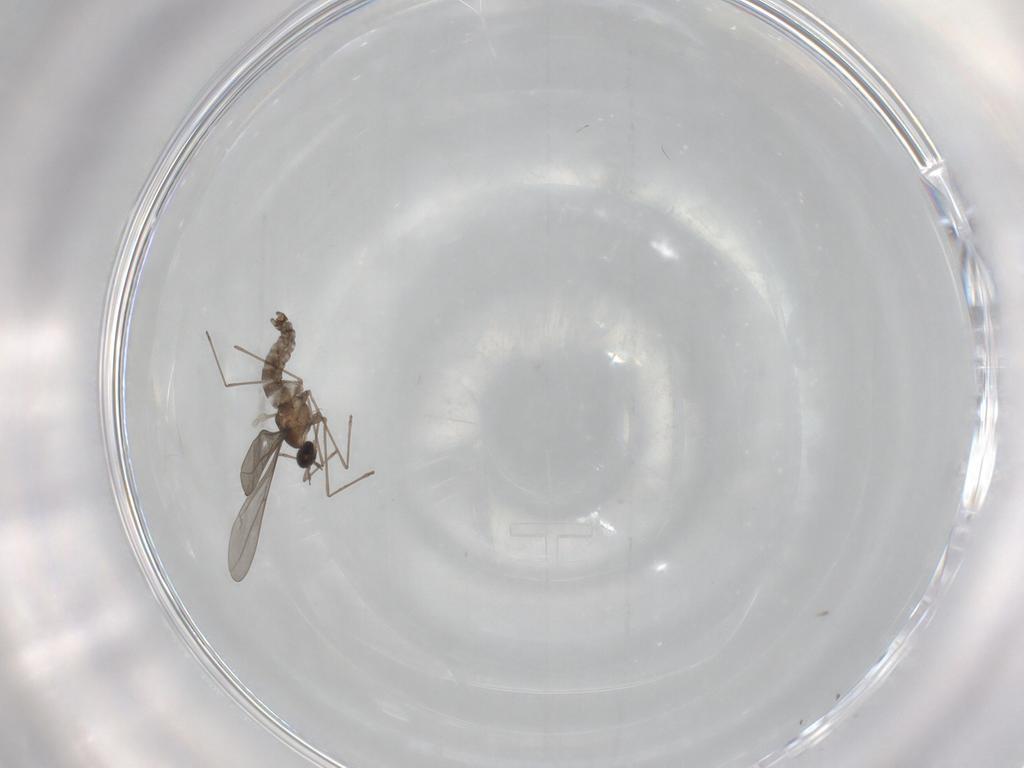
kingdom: Animalia
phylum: Arthropoda
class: Insecta
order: Diptera
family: Cecidomyiidae
